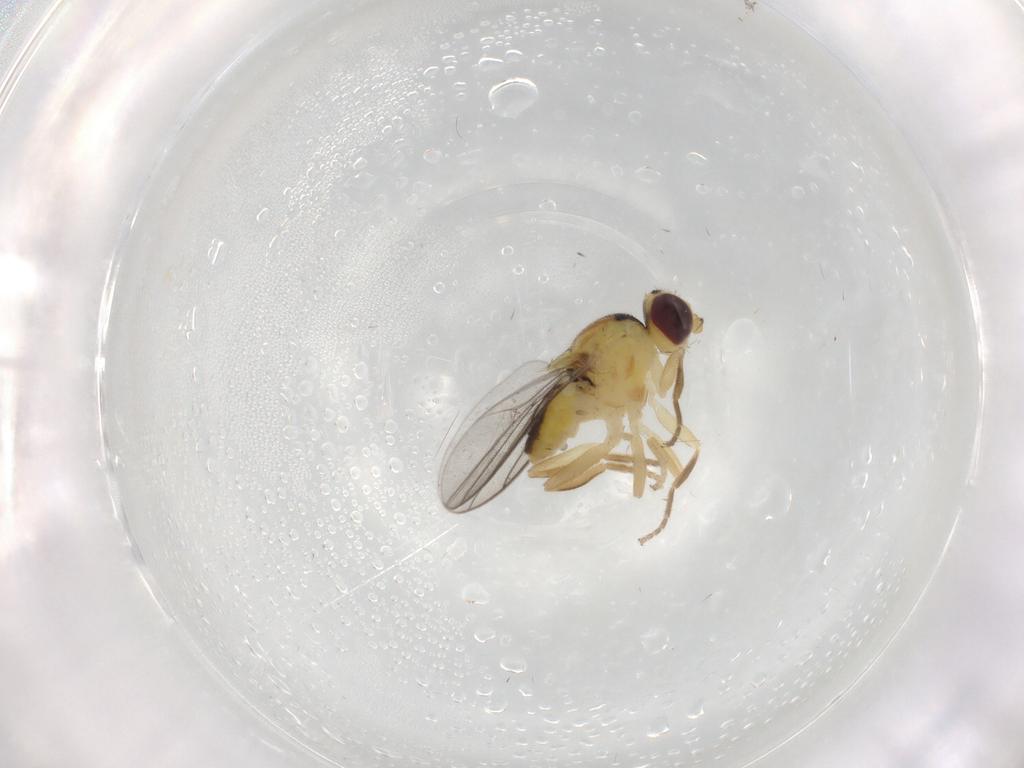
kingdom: Animalia
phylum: Arthropoda
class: Insecta
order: Diptera
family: Chloropidae
